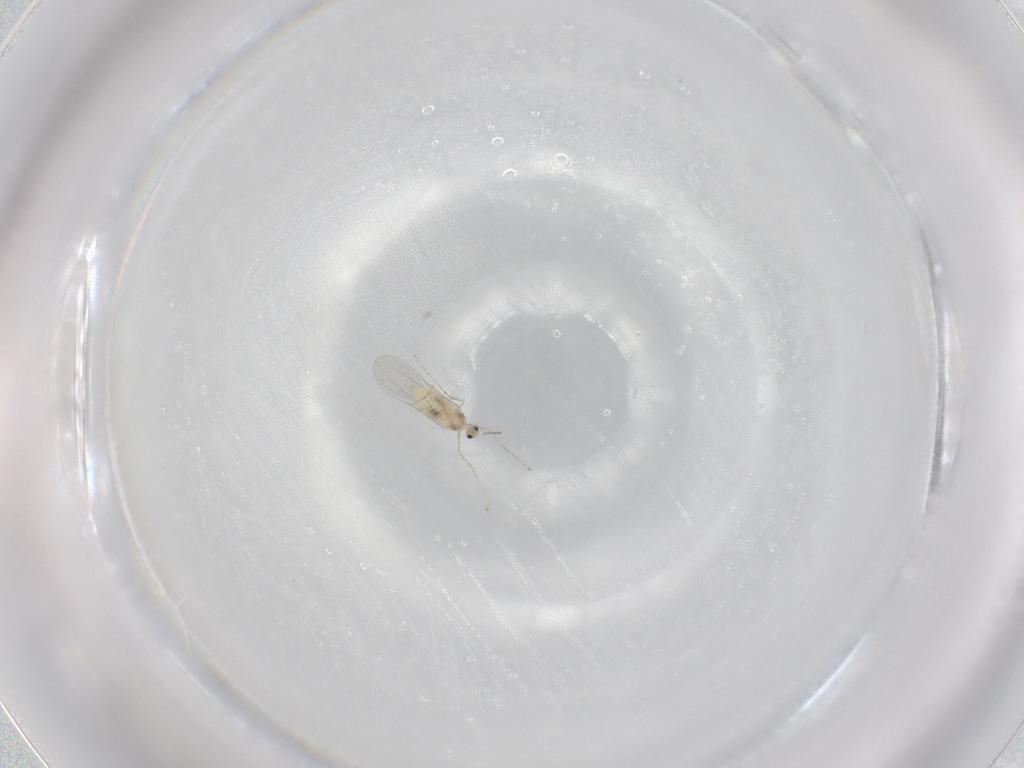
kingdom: Animalia
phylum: Arthropoda
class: Insecta
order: Diptera
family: Cecidomyiidae
